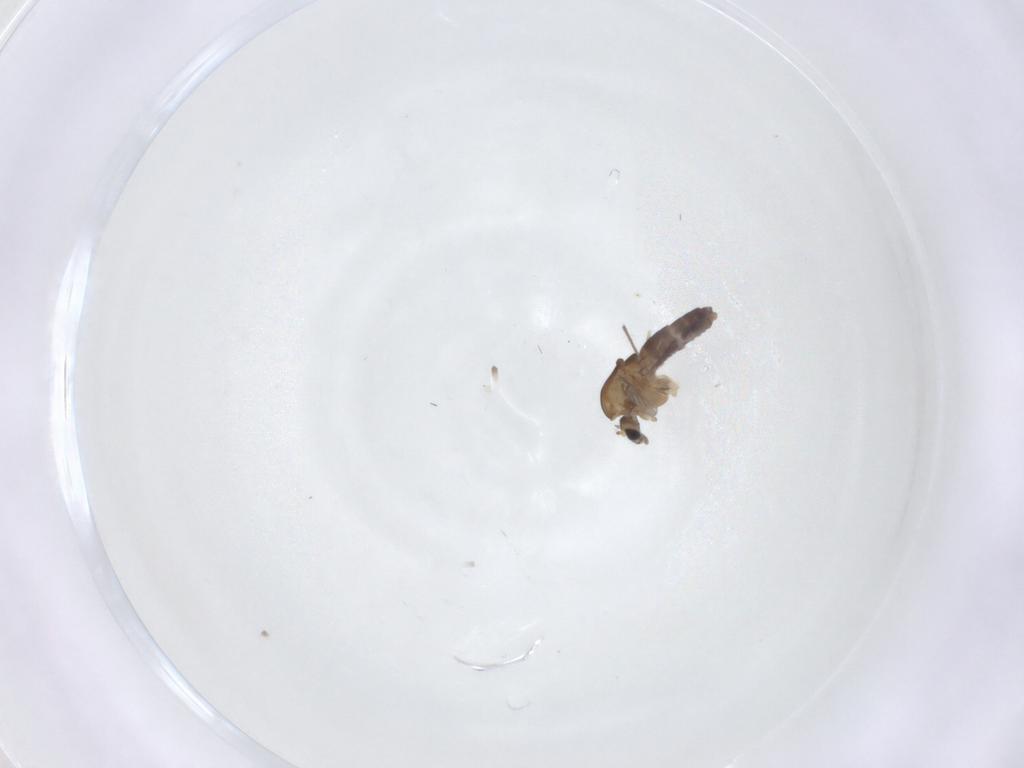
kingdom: Animalia
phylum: Arthropoda
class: Insecta
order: Diptera
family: Chironomidae
